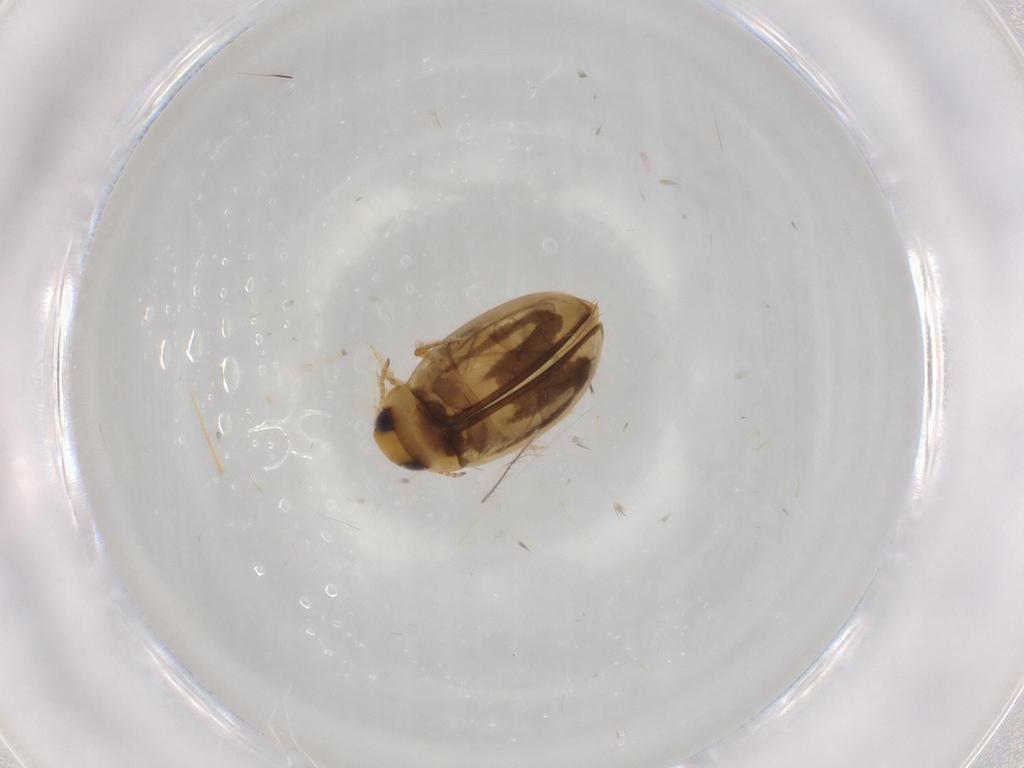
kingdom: Animalia
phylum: Arthropoda
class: Insecta
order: Coleoptera
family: Dytiscidae
